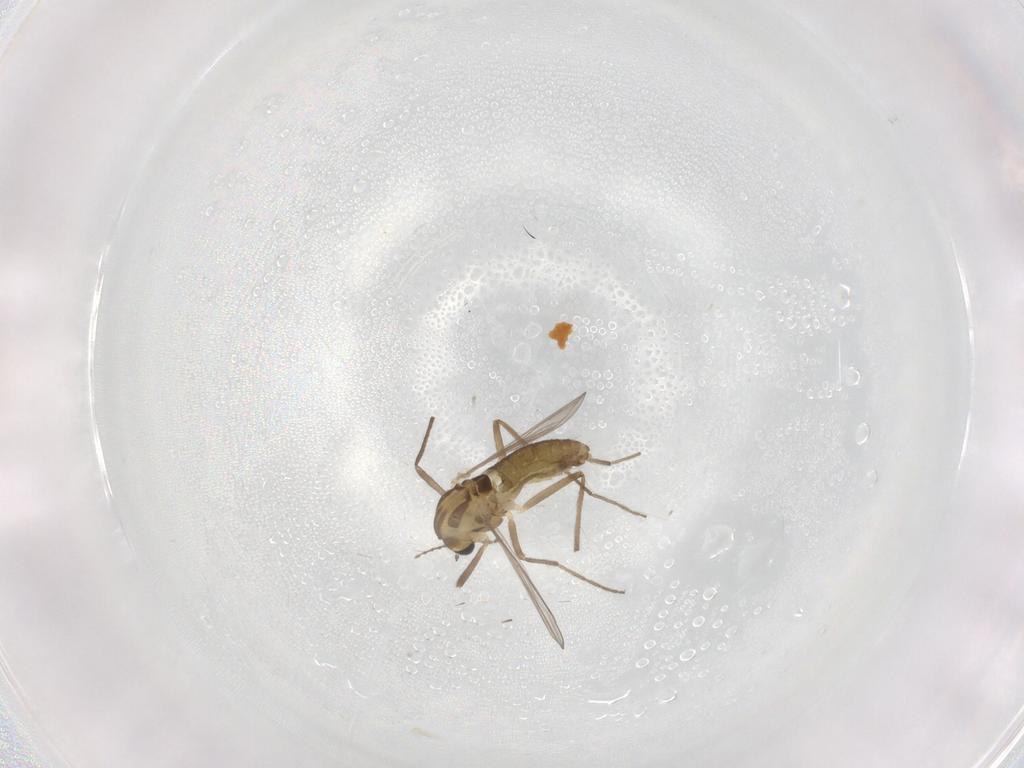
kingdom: Animalia
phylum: Arthropoda
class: Insecta
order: Diptera
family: Chironomidae
